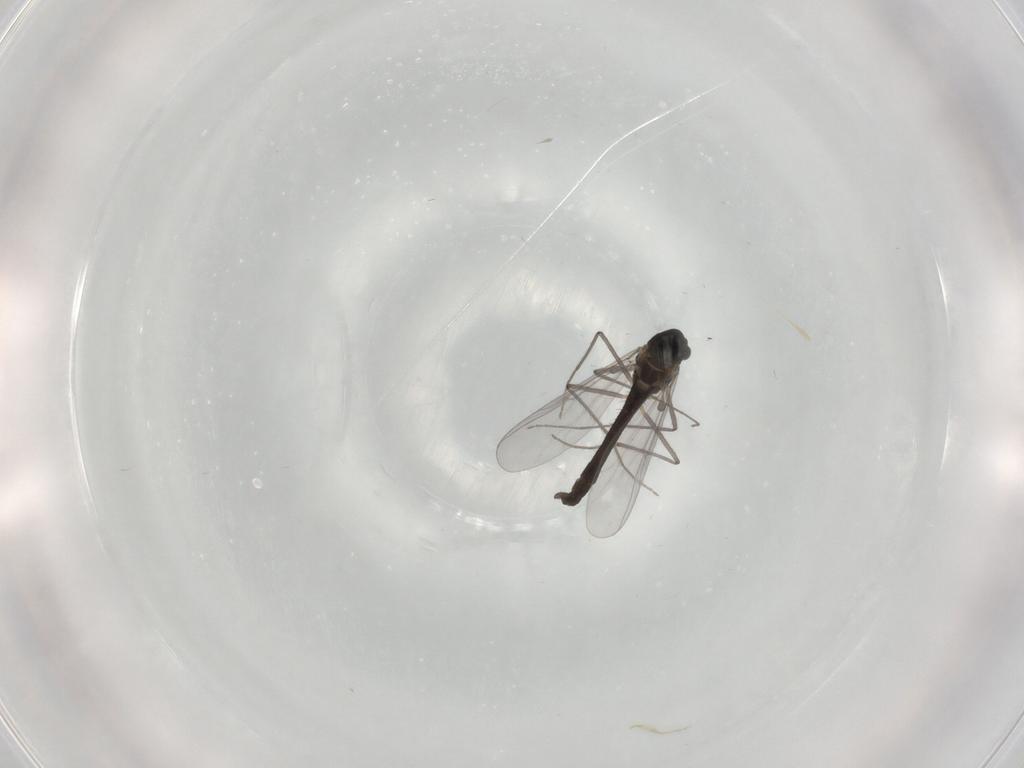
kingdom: Animalia
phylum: Arthropoda
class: Insecta
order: Diptera
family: Chironomidae
